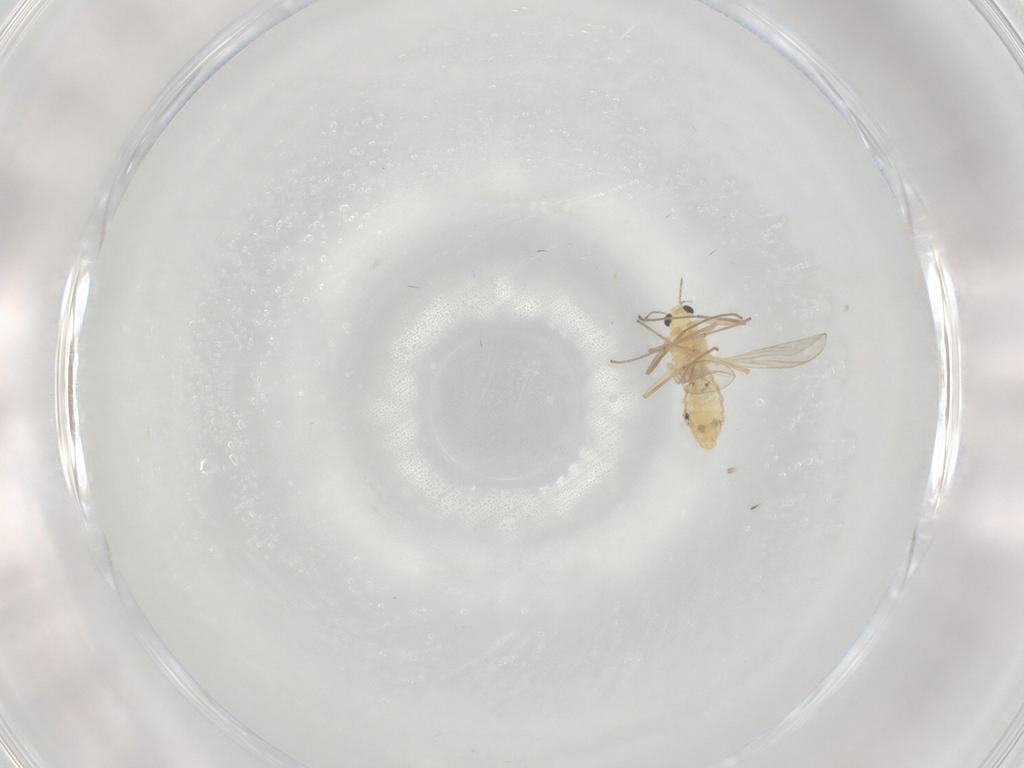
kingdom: Animalia
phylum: Arthropoda
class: Insecta
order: Diptera
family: Chironomidae
